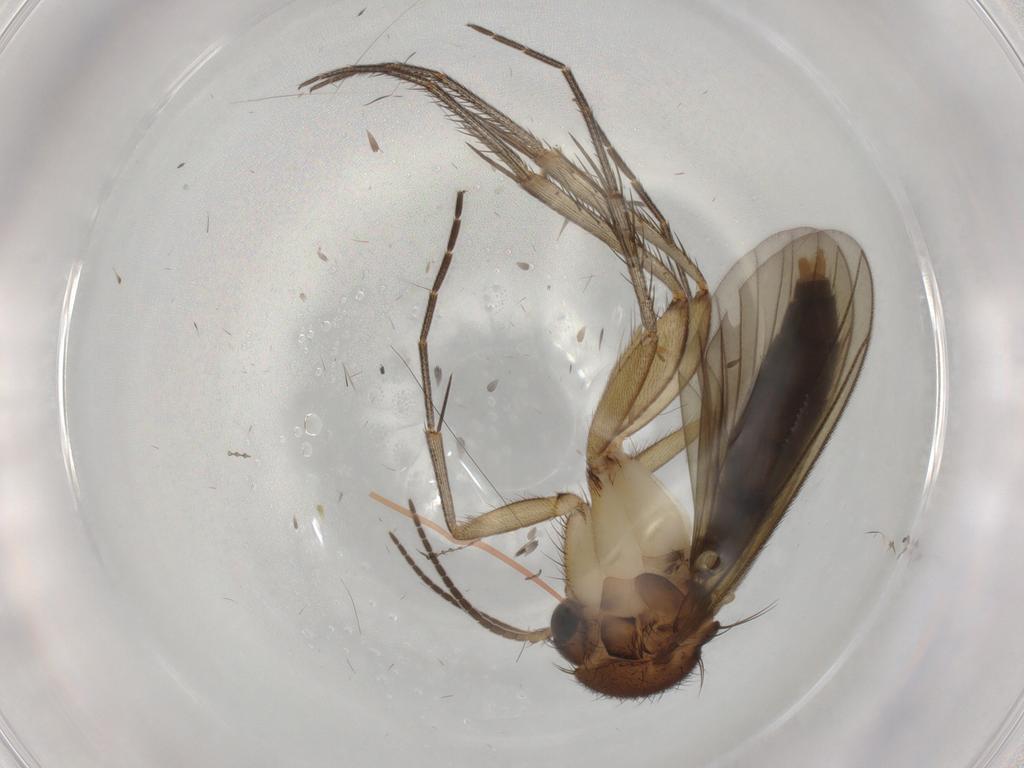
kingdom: Animalia
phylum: Arthropoda
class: Insecta
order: Diptera
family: Mycetophilidae
